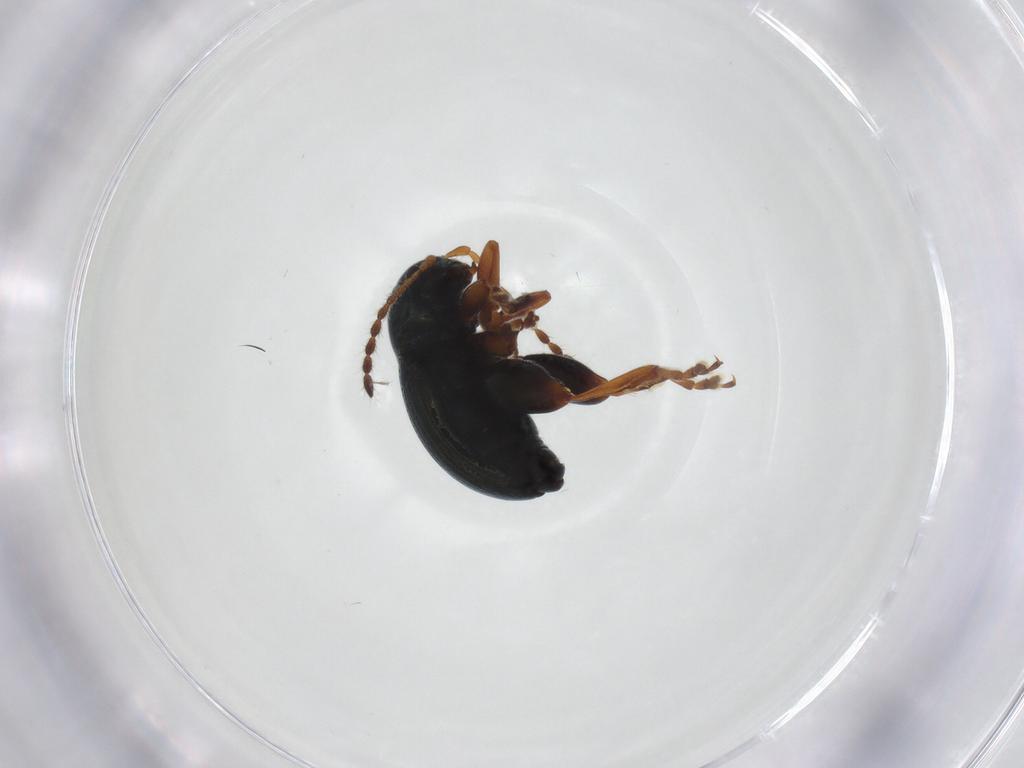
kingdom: Animalia
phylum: Arthropoda
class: Insecta
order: Coleoptera
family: Chrysomelidae
